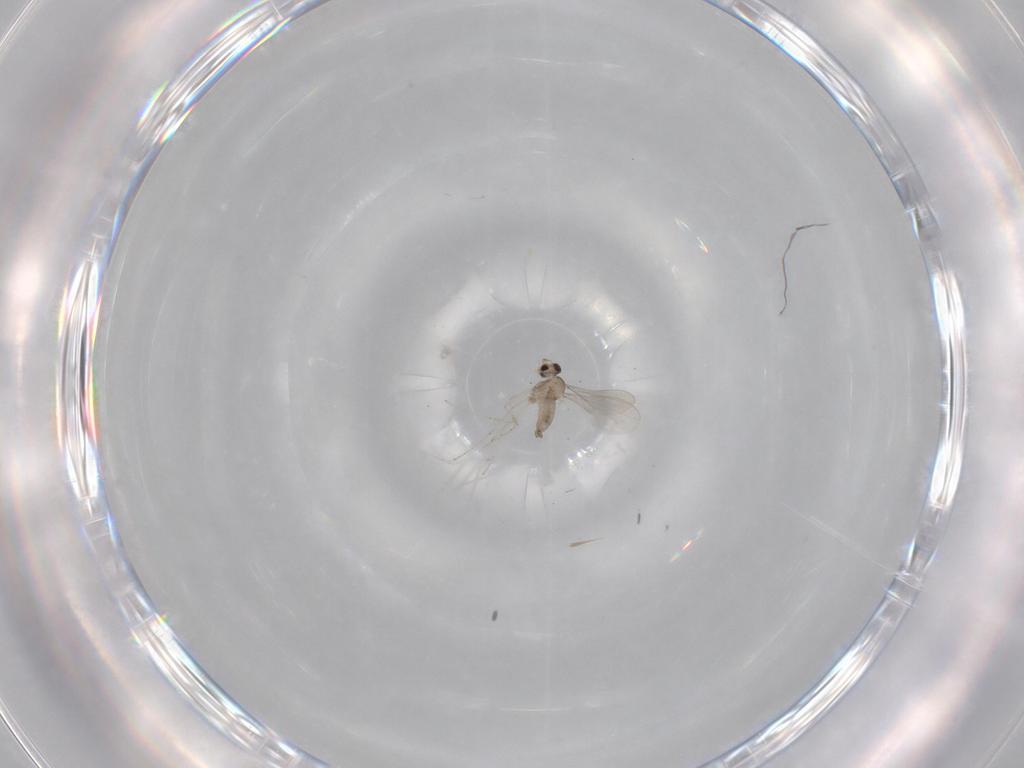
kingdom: Animalia
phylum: Arthropoda
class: Insecta
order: Diptera
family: Cecidomyiidae
